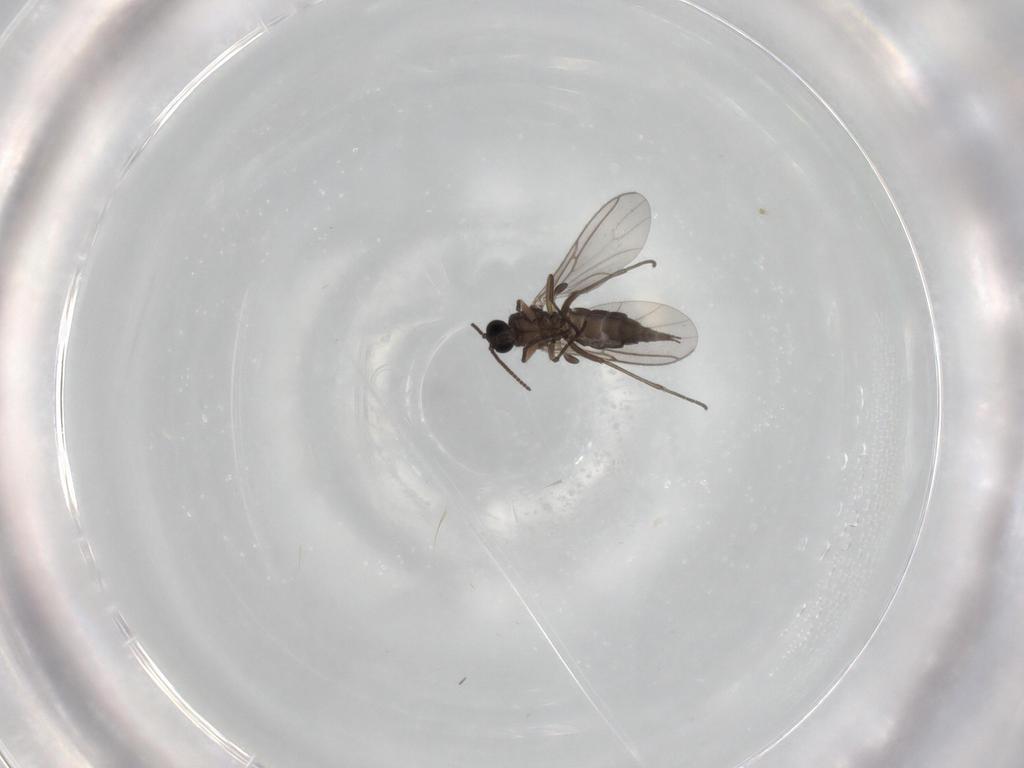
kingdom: Animalia
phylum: Arthropoda
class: Insecta
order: Diptera
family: Sciaridae
